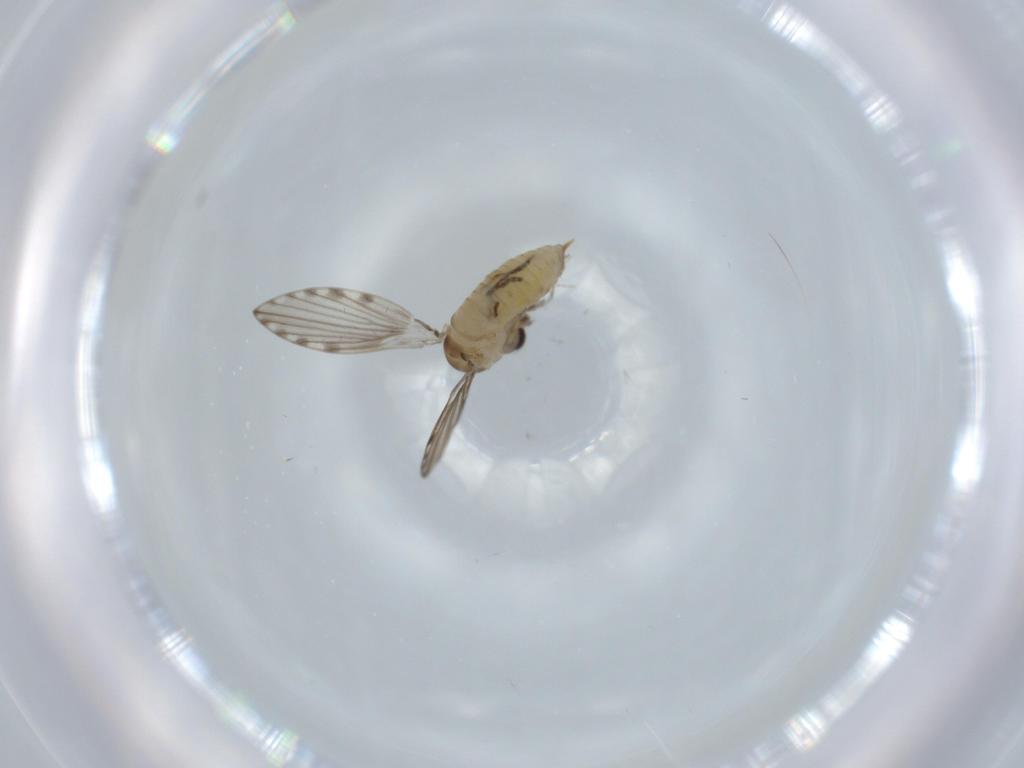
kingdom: Animalia
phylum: Arthropoda
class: Insecta
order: Diptera
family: Psychodidae
